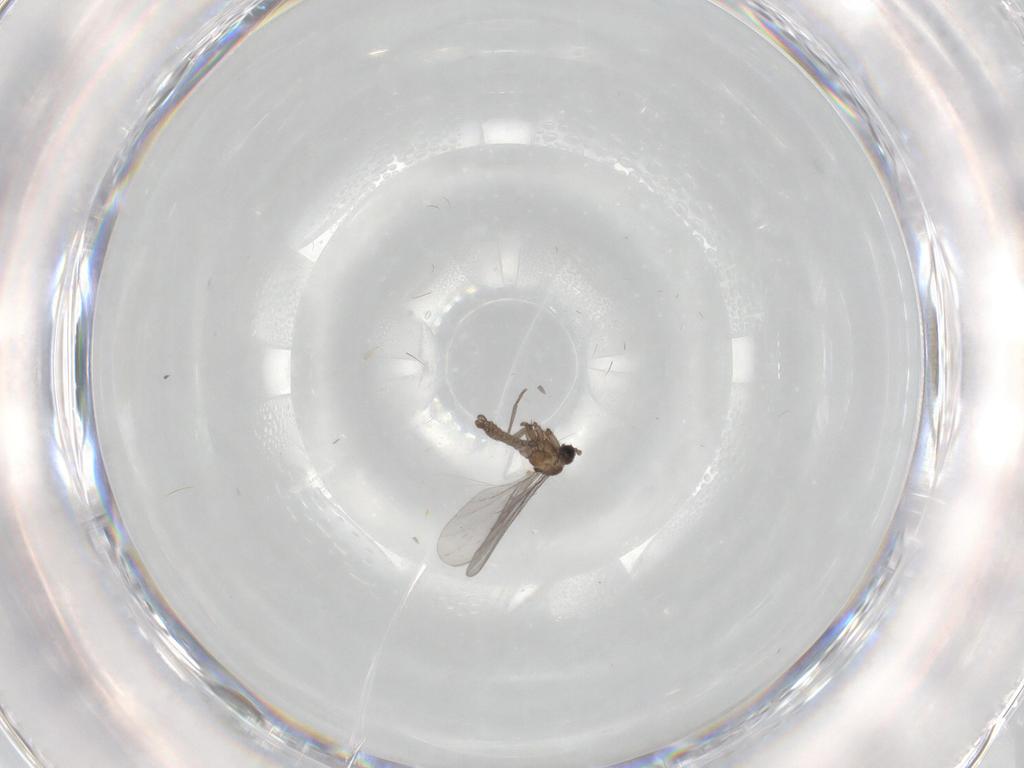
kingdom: Animalia
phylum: Arthropoda
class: Insecta
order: Diptera
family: Sciaridae
